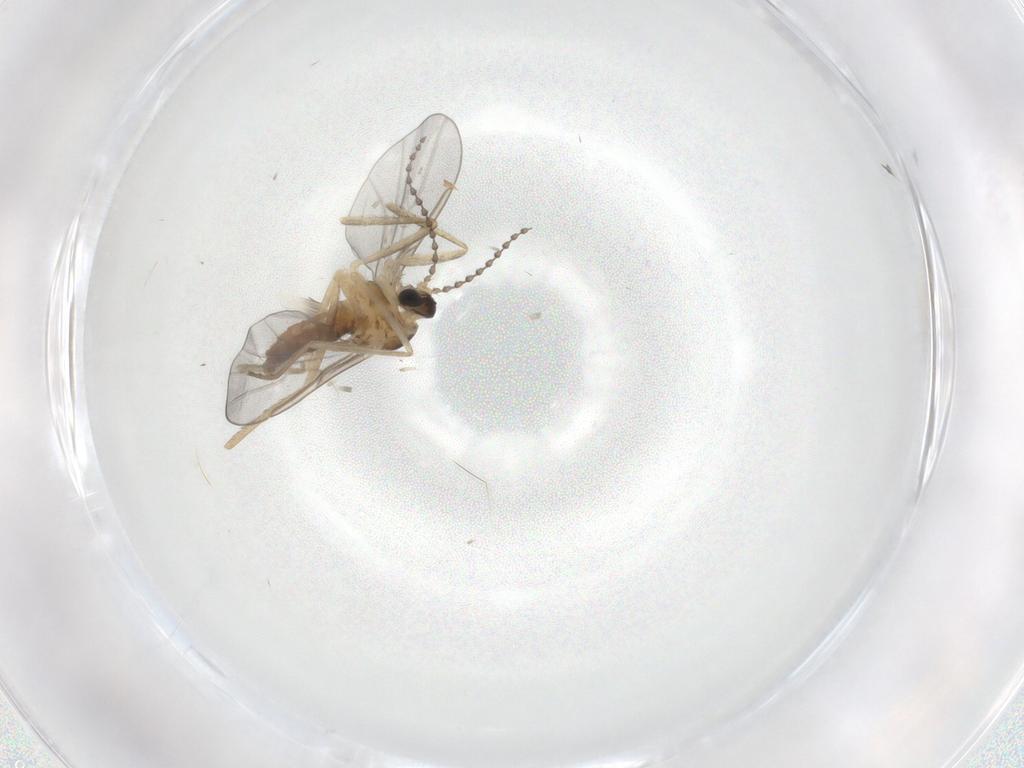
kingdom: Animalia
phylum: Arthropoda
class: Insecta
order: Diptera
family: Cecidomyiidae
